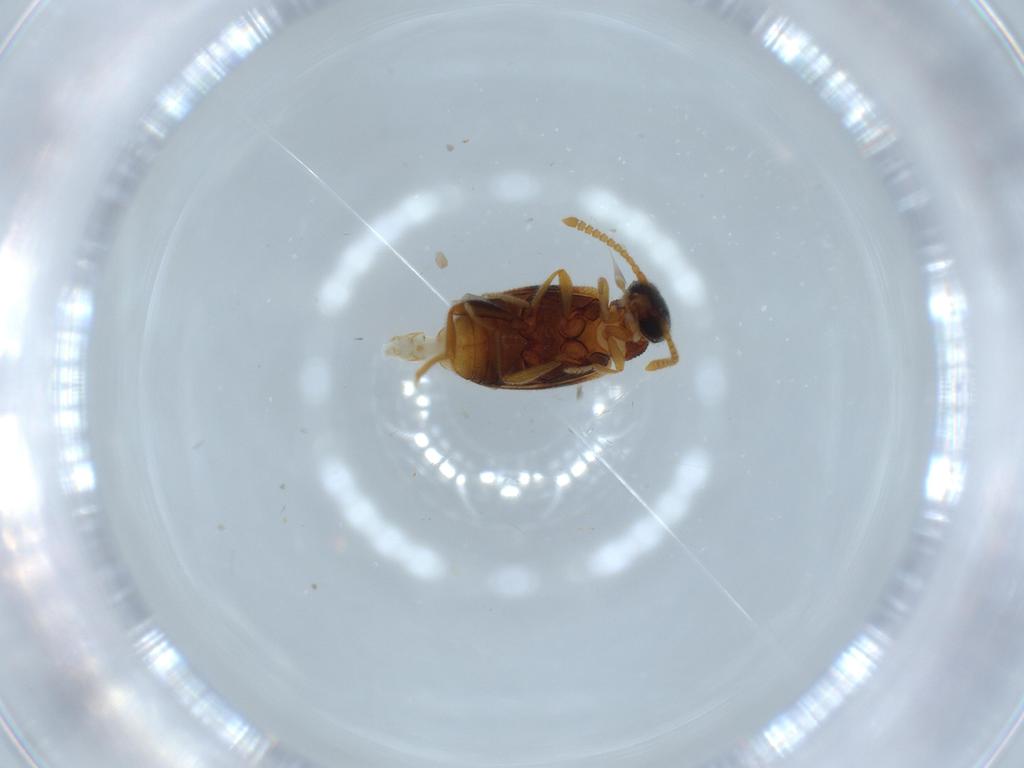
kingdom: Animalia
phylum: Arthropoda
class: Insecta
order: Coleoptera
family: Aderidae
